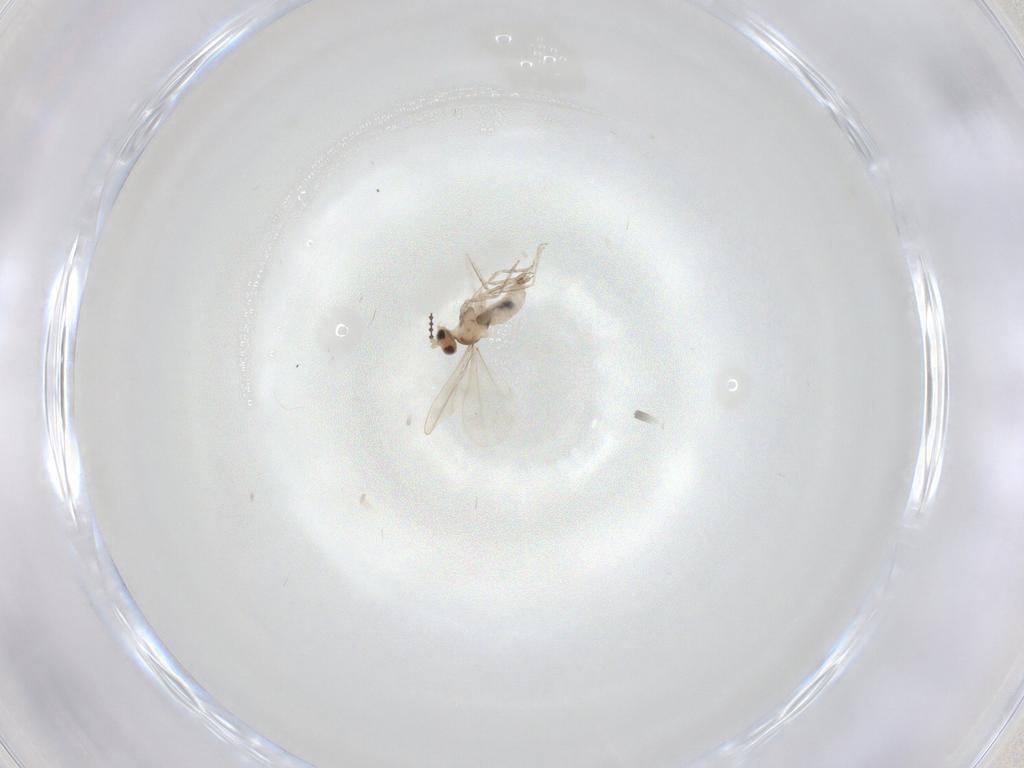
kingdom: Animalia
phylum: Arthropoda
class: Insecta
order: Diptera
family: Cecidomyiidae
